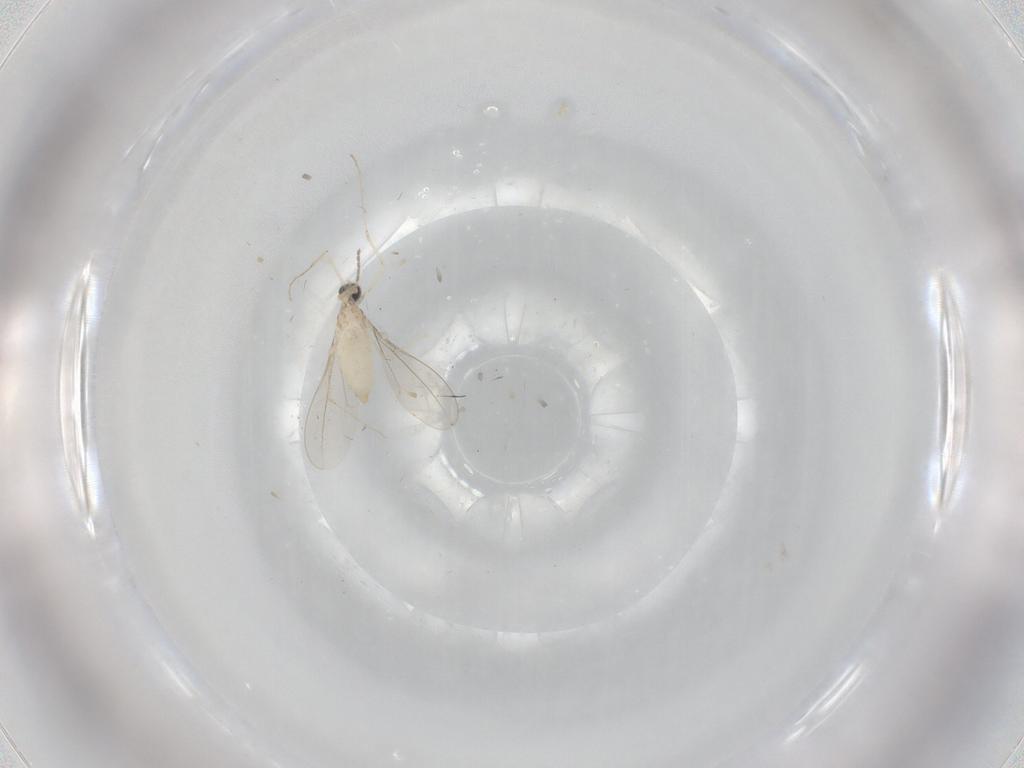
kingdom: Animalia
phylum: Arthropoda
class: Insecta
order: Diptera
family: Cecidomyiidae
